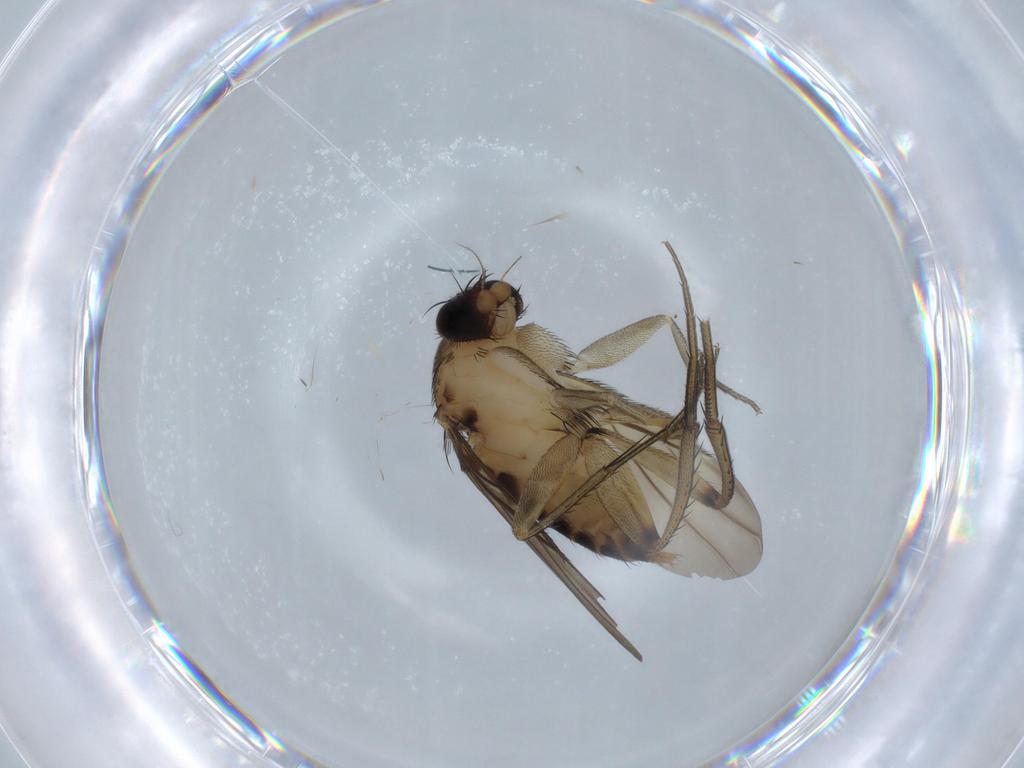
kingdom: Animalia
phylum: Arthropoda
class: Insecta
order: Diptera
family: Phoridae
